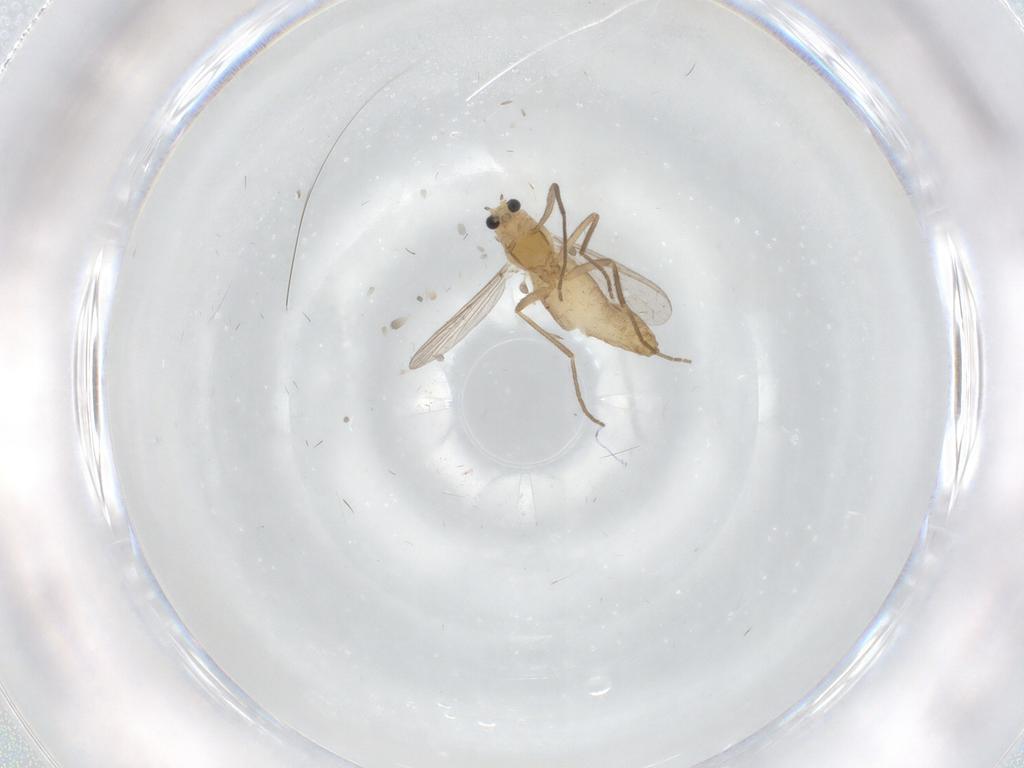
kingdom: Animalia
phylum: Arthropoda
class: Insecta
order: Diptera
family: Chironomidae
